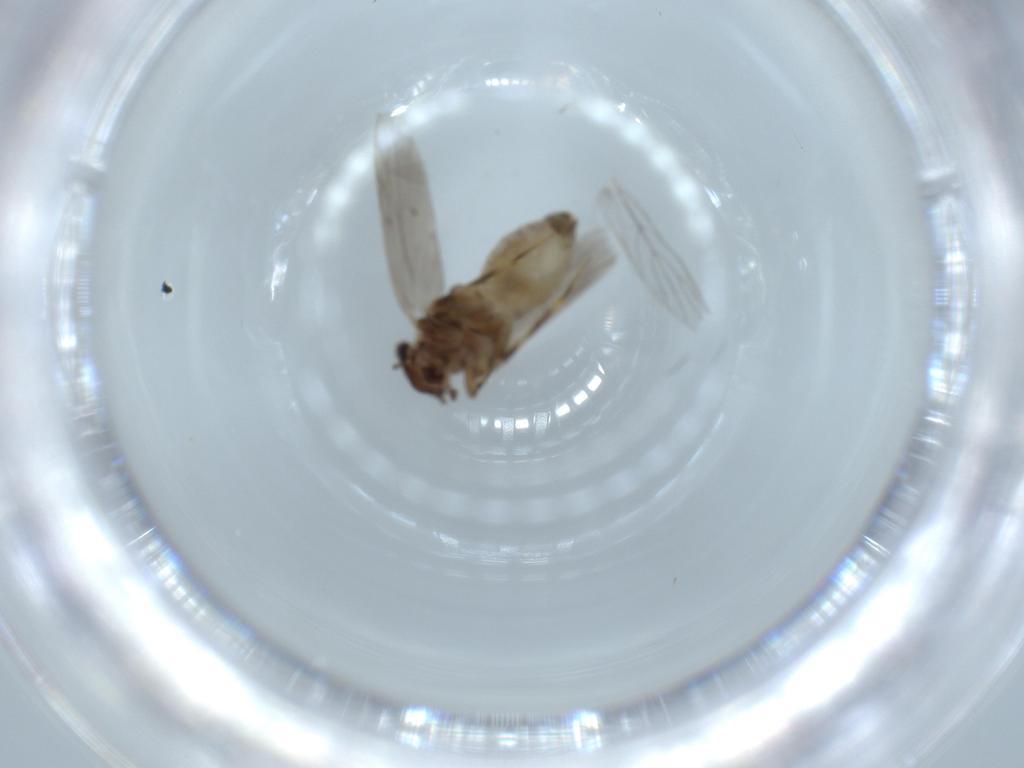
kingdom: Animalia
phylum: Arthropoda
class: Insecta
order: Psocodea
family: Lepidopsocidae
